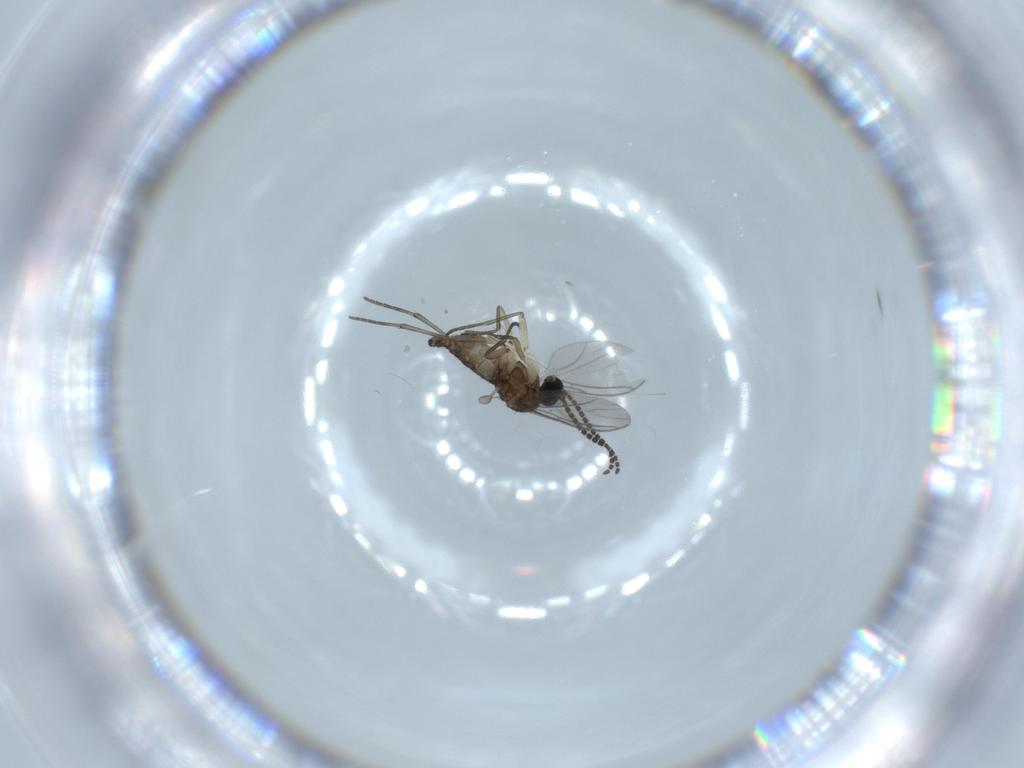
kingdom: Animalia
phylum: Arthropoda
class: Insecta
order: Diptera
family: Sciaridae
